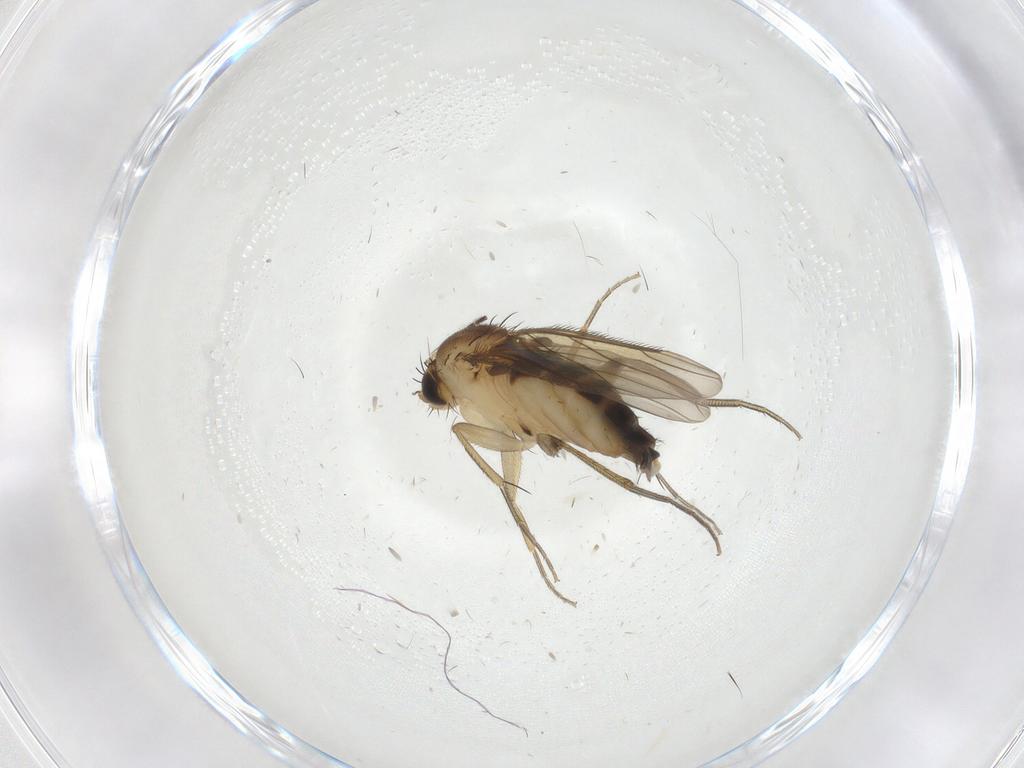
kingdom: Animalia
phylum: Arthropoda
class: Insecta
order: Diptera
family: Phoridae
